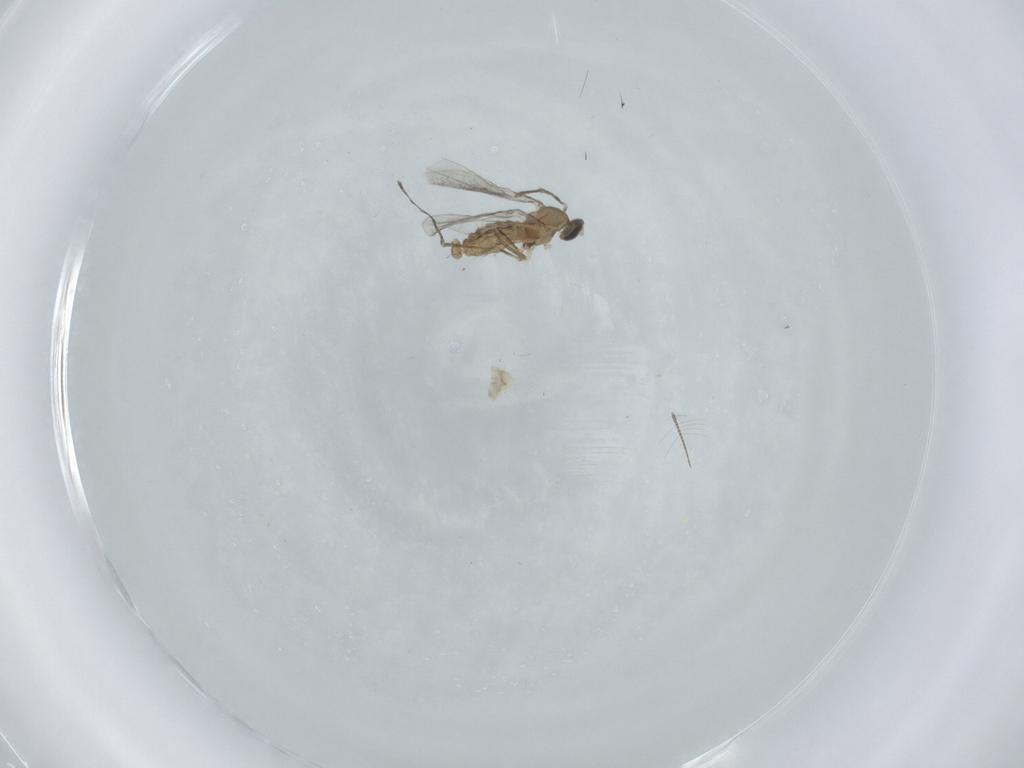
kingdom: Animalia
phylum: Arthropoda
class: Insecta
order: Diptera
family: Cecidomyiidae
